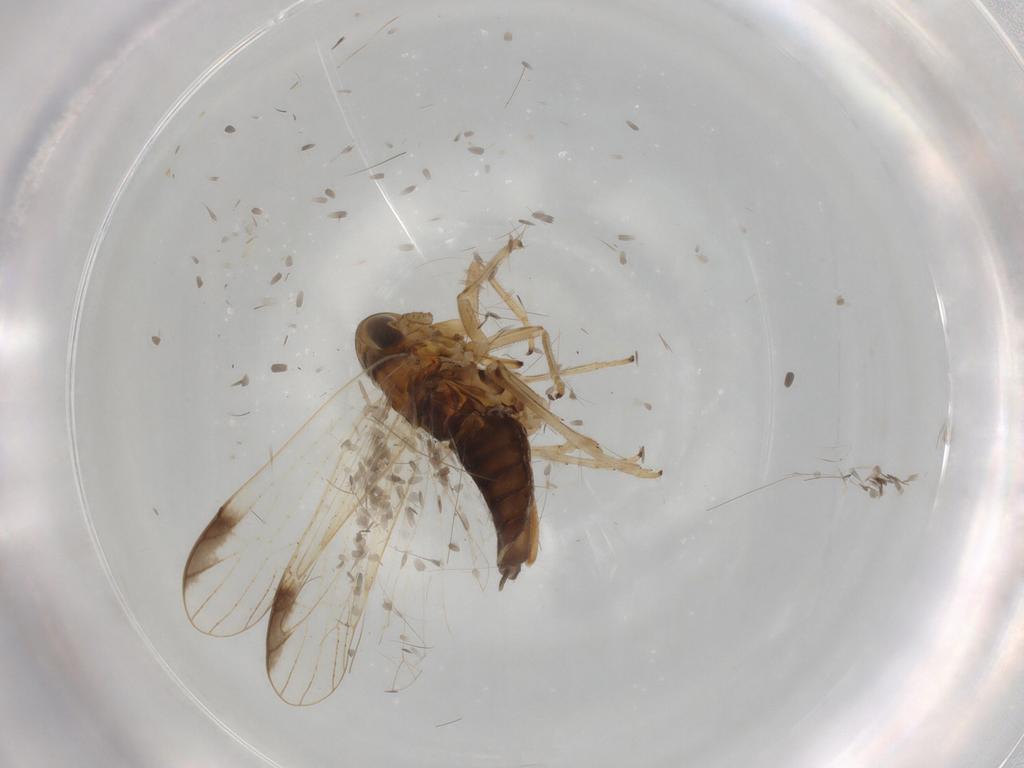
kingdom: Animalia
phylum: Arthropoda
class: Insecta
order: Hemiptera
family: Delphacidae
